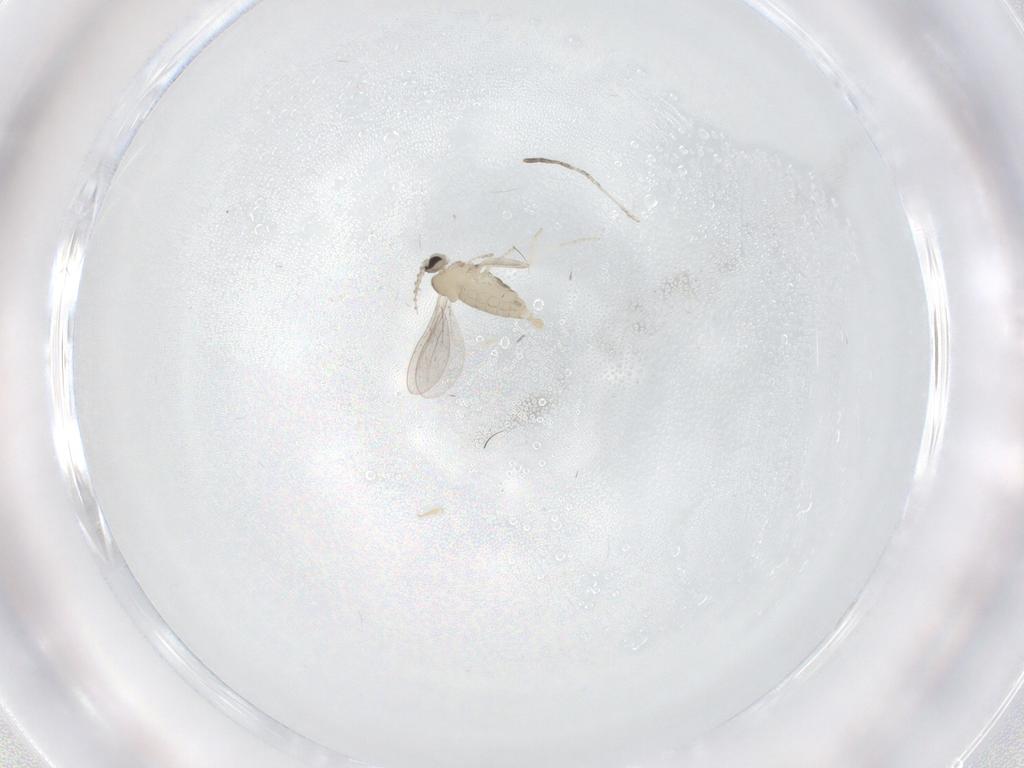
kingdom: Animalia
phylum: Arthropoda
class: Insecta
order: Diptera
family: Cecidomyiidae
